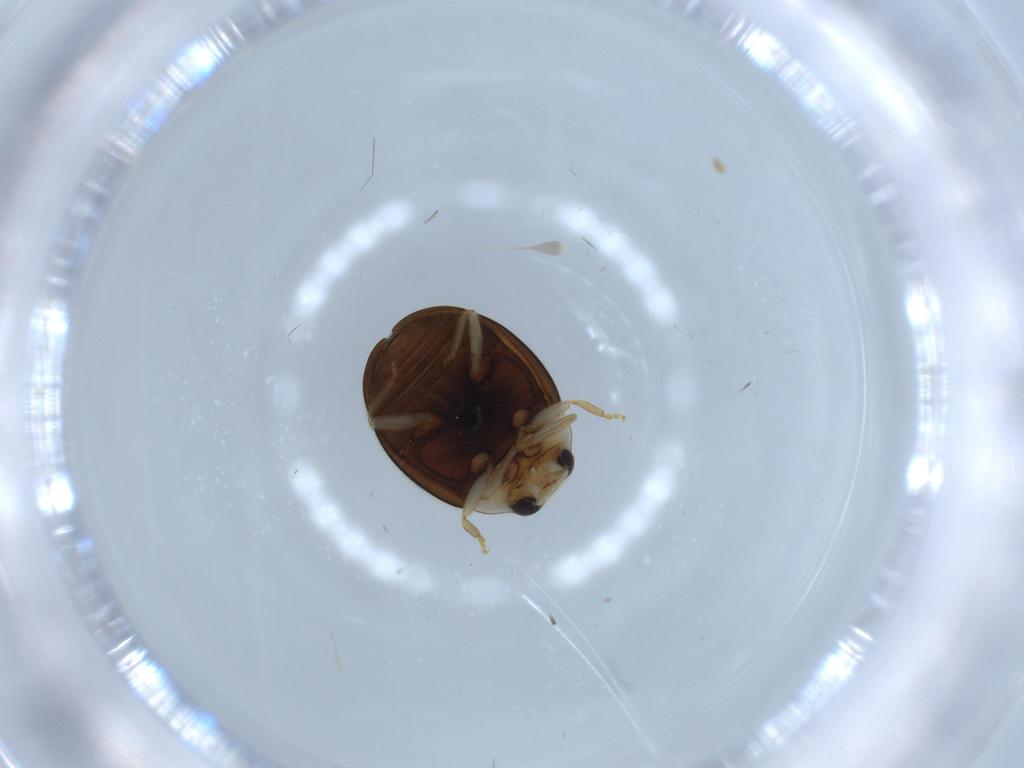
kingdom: Animalia
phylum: Arthropoda
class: Insecta
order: Coleoptera
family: Coccinellidae
